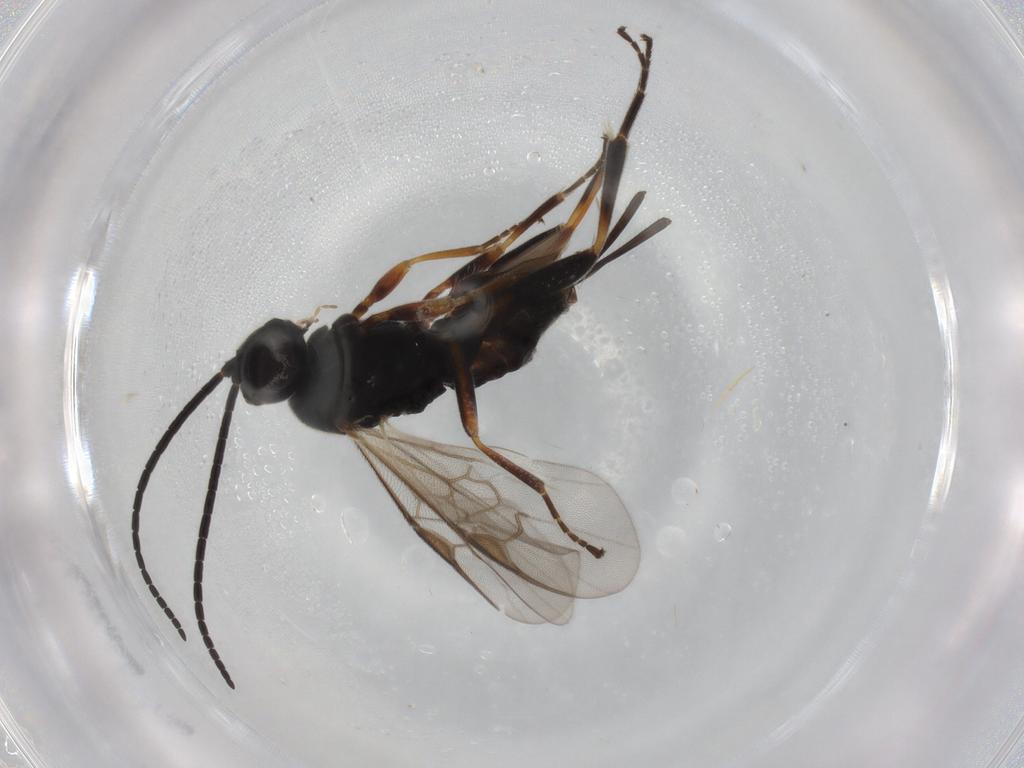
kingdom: Animalia
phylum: Arthropoda
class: Insecta
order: Hymenoptera
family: Braconidae
